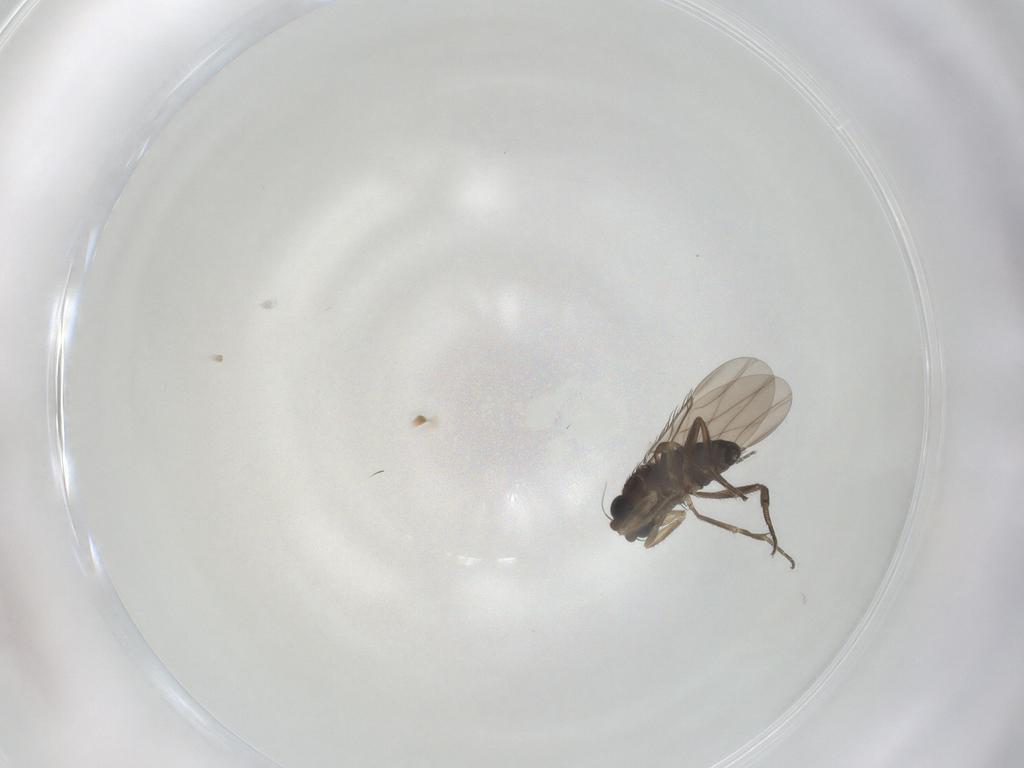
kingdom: Animalia
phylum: Arthropoda
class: Insecta
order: Diptera
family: Phoridae
